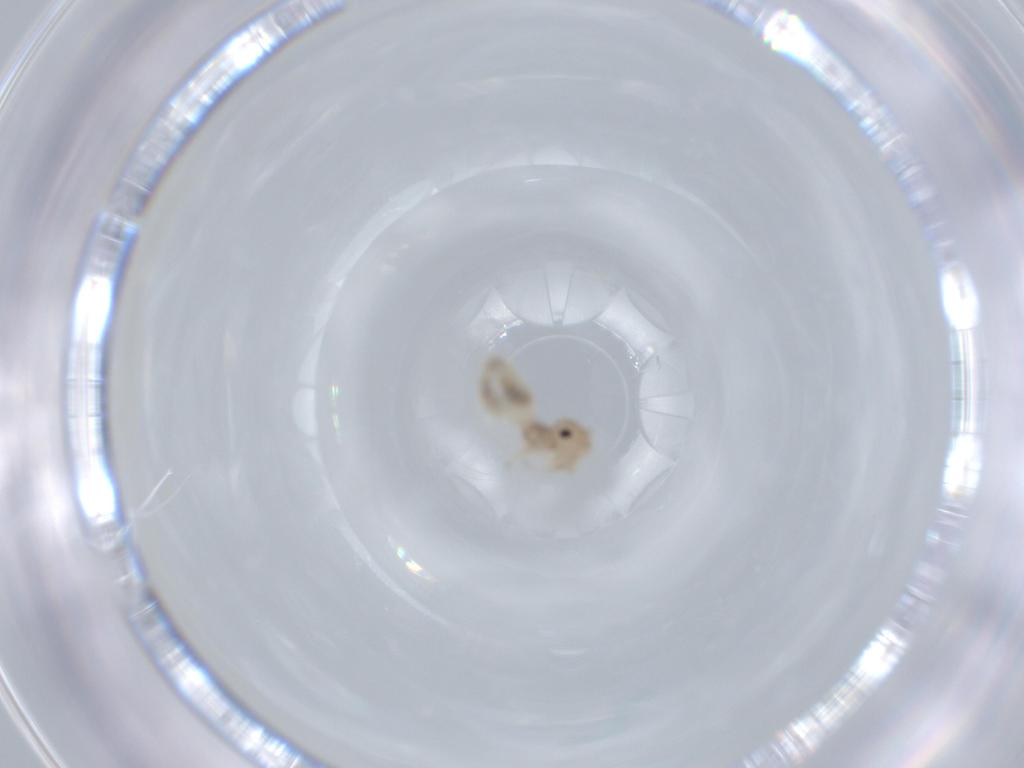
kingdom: Animalia
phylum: Arthropoda
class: Insecta
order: Psocodea
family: Amphipsocidae
